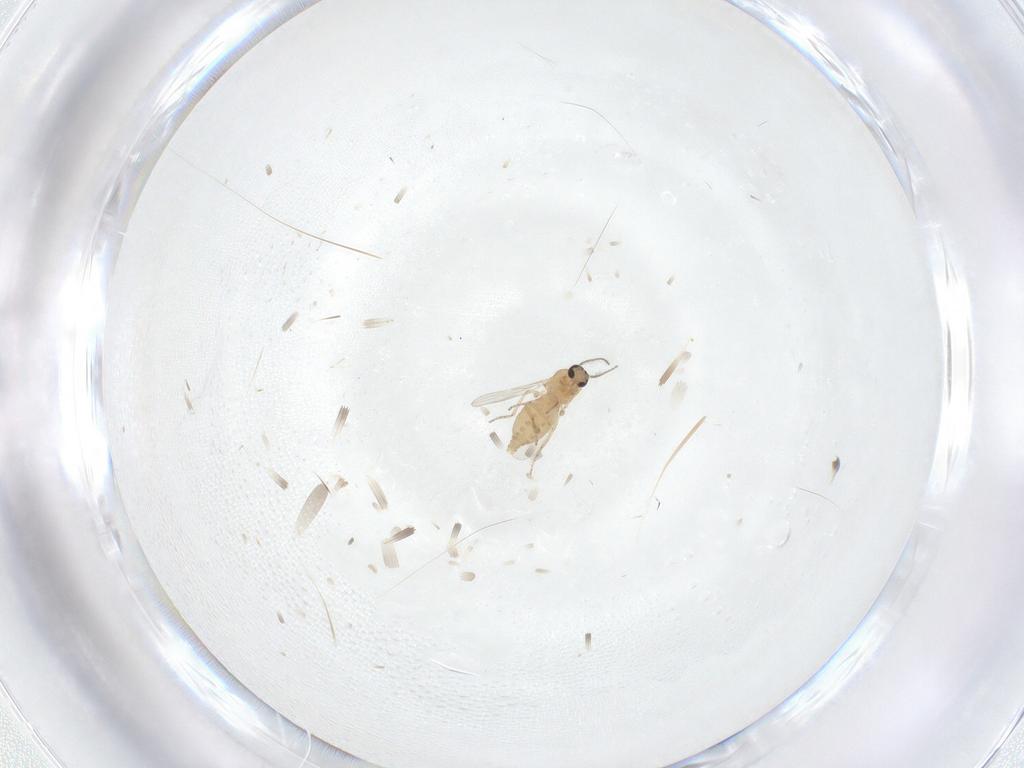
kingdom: Animalia
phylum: Arthropoda
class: Insecta
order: Diptera
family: Ceratopogonidae
